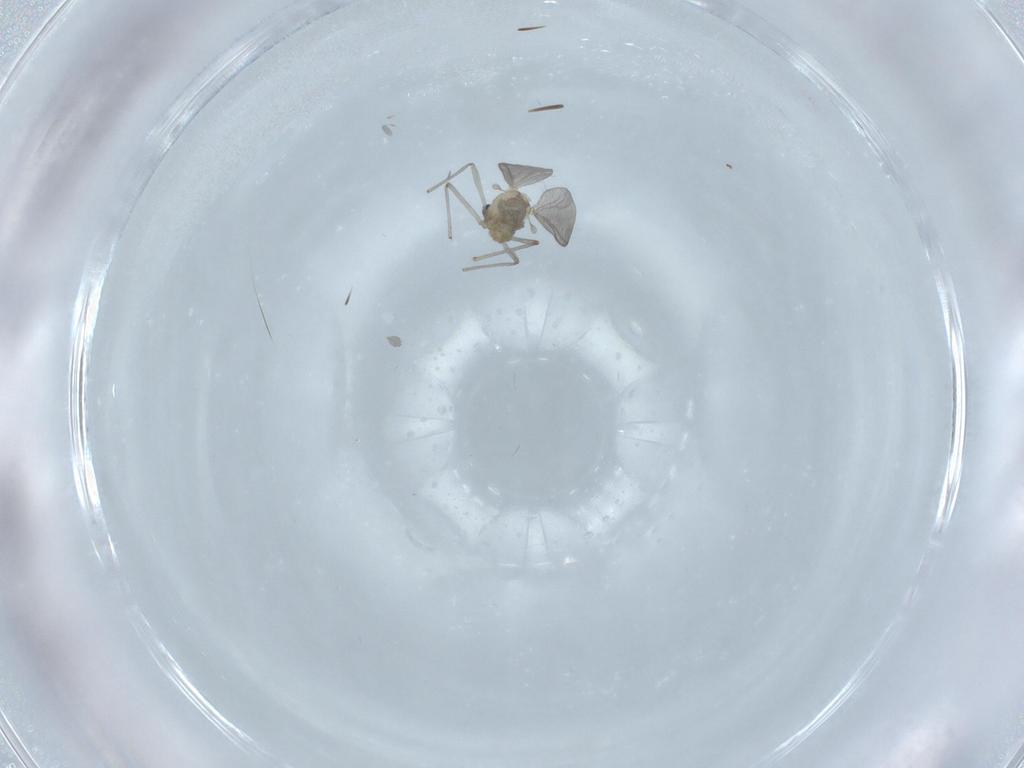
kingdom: Animalia
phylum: Arthropoda
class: Insecta
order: Diptera
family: Chironomidae
